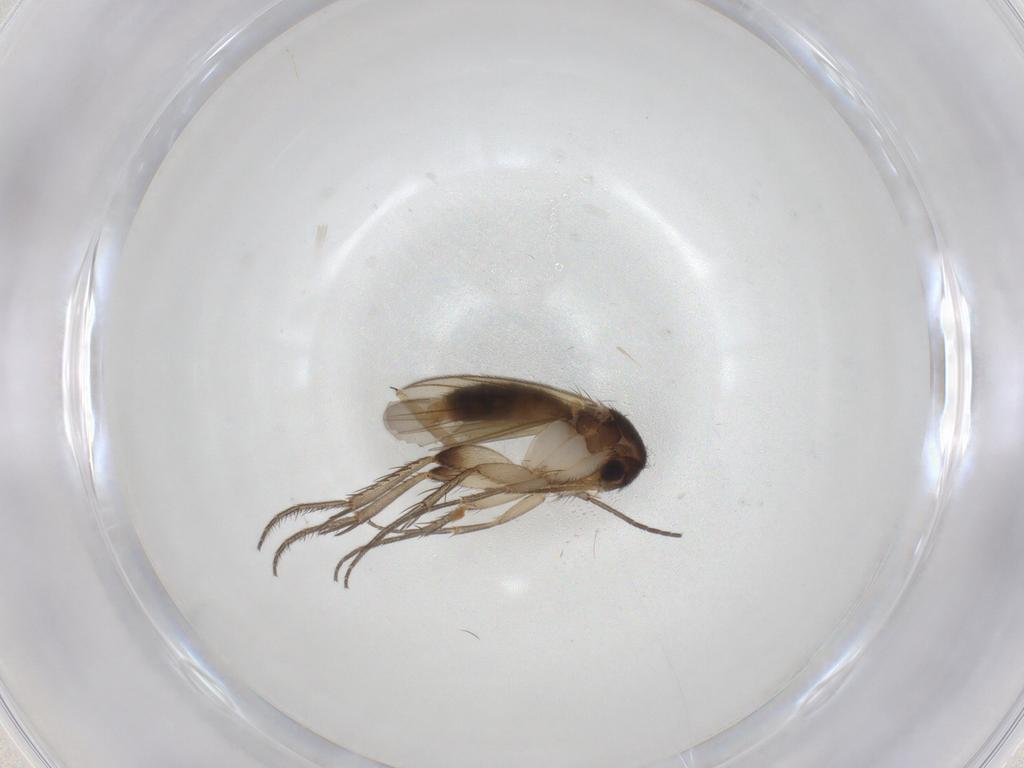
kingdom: Animalia
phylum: Arthropoda
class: Insecta
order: Diptera
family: Sciaridae
